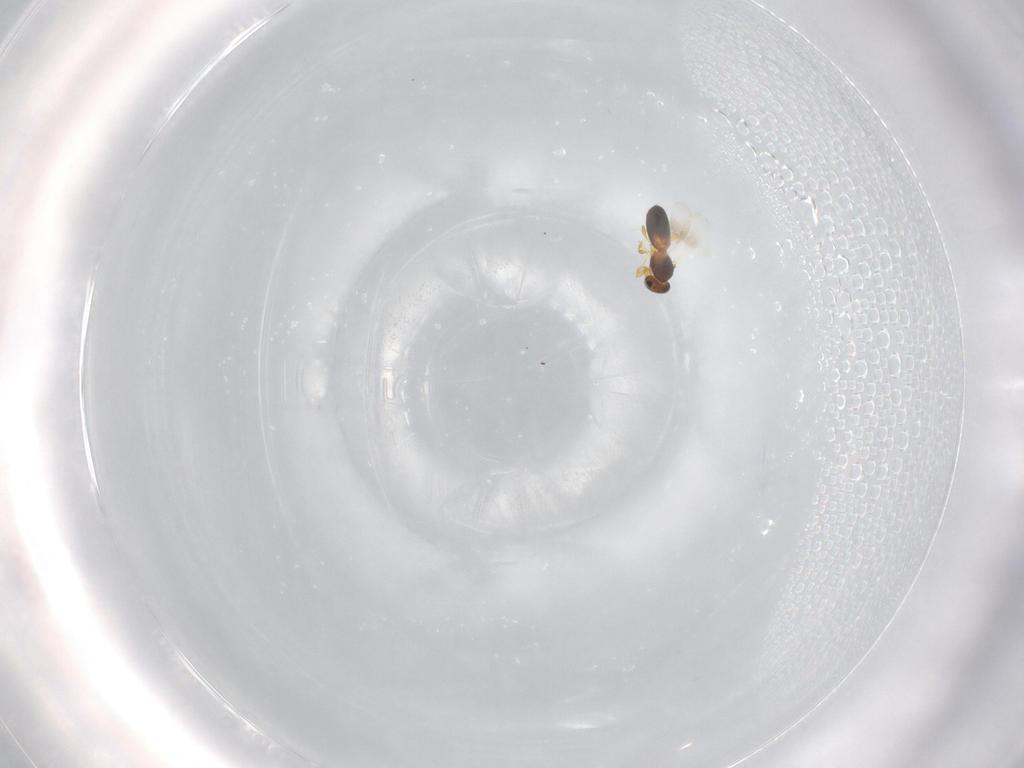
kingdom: Animalia
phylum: Arthropoda
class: Insecta
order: Hymenoptera
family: Platygastridae
